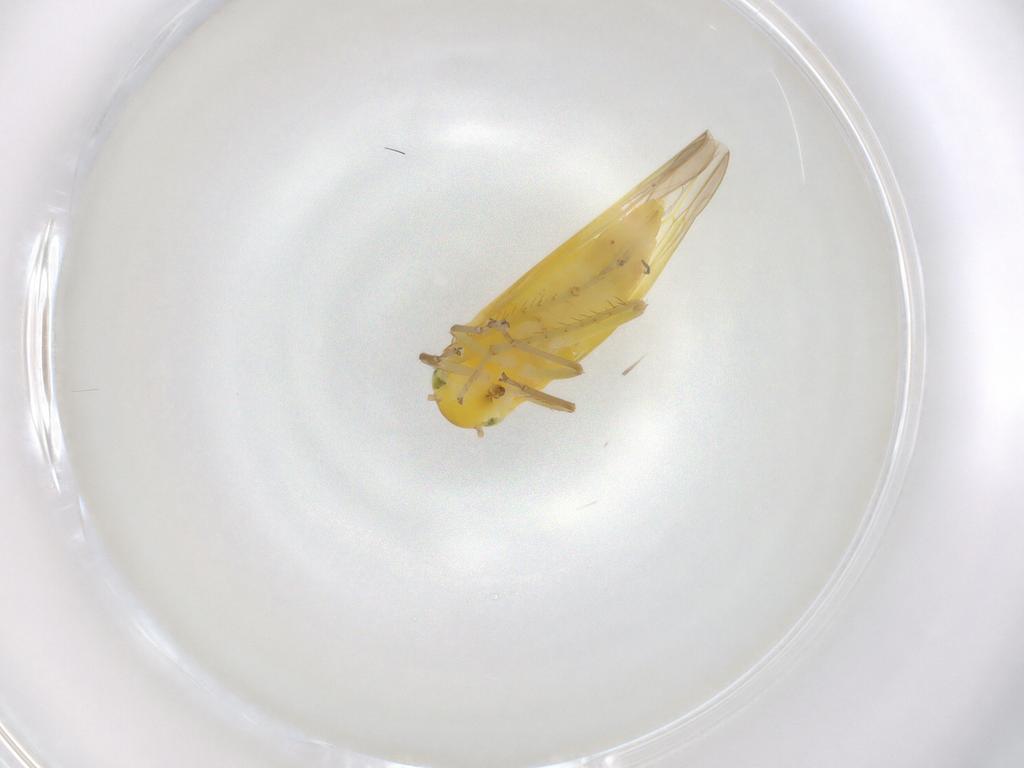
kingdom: Animalia
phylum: Arthropoda
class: Insecta
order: Hemiptera
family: Cicadellidae
